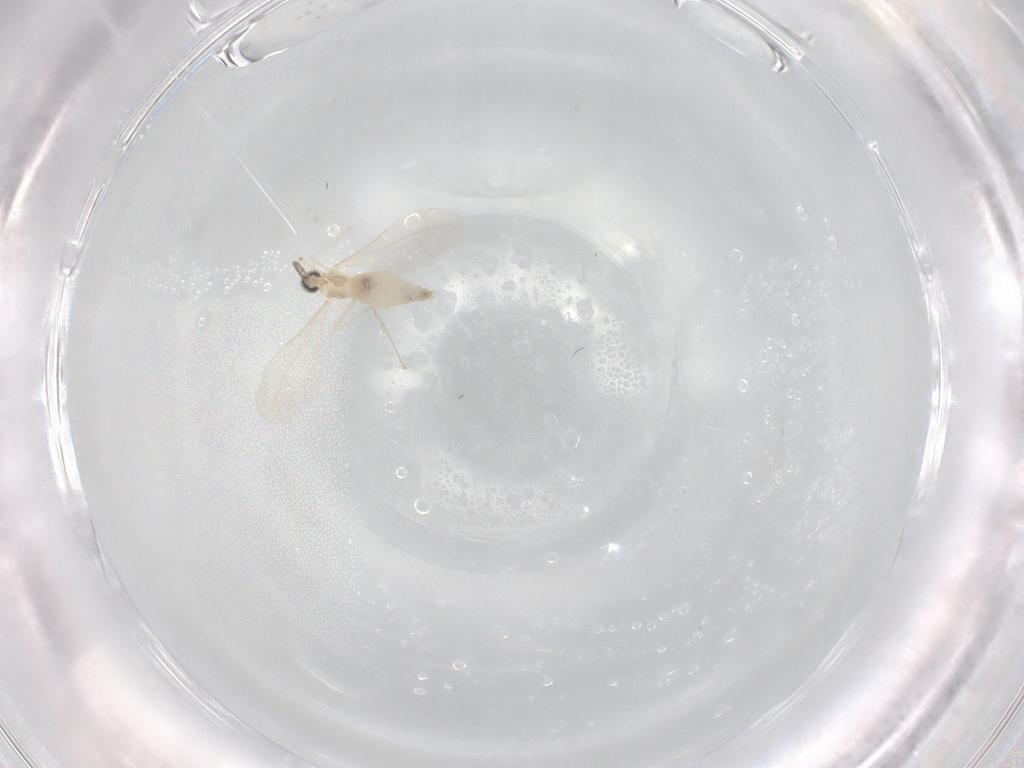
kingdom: Animalia
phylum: Arthropoda
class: Insecta
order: Diptera
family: Cecidomyiidae
